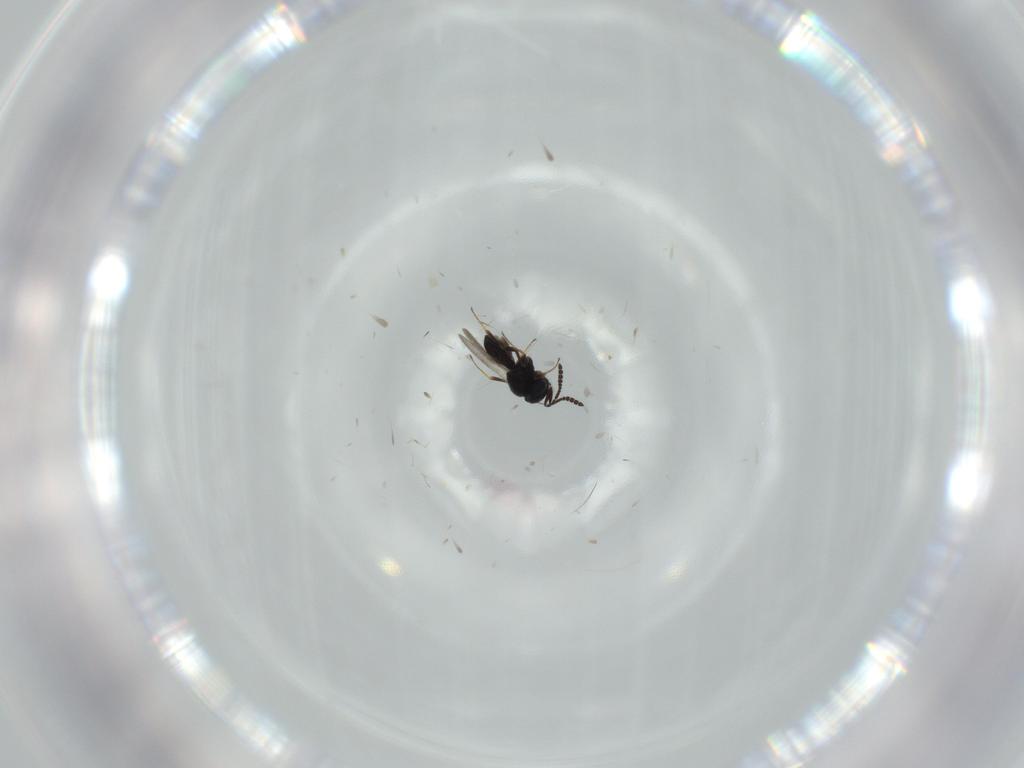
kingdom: Animalia
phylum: Arthropoda
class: Insecta
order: Hymenoptera
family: Scelionidae
